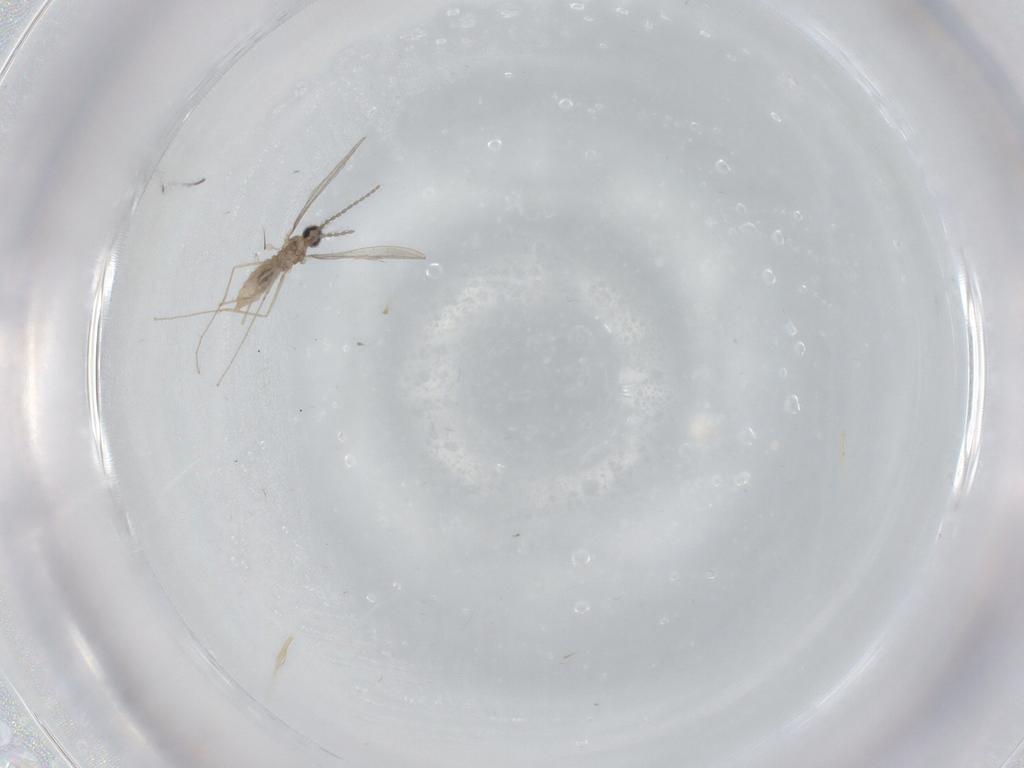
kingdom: Animalia
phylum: Arthropoda
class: Insecta
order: Diptera
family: Cecidomyiidae
